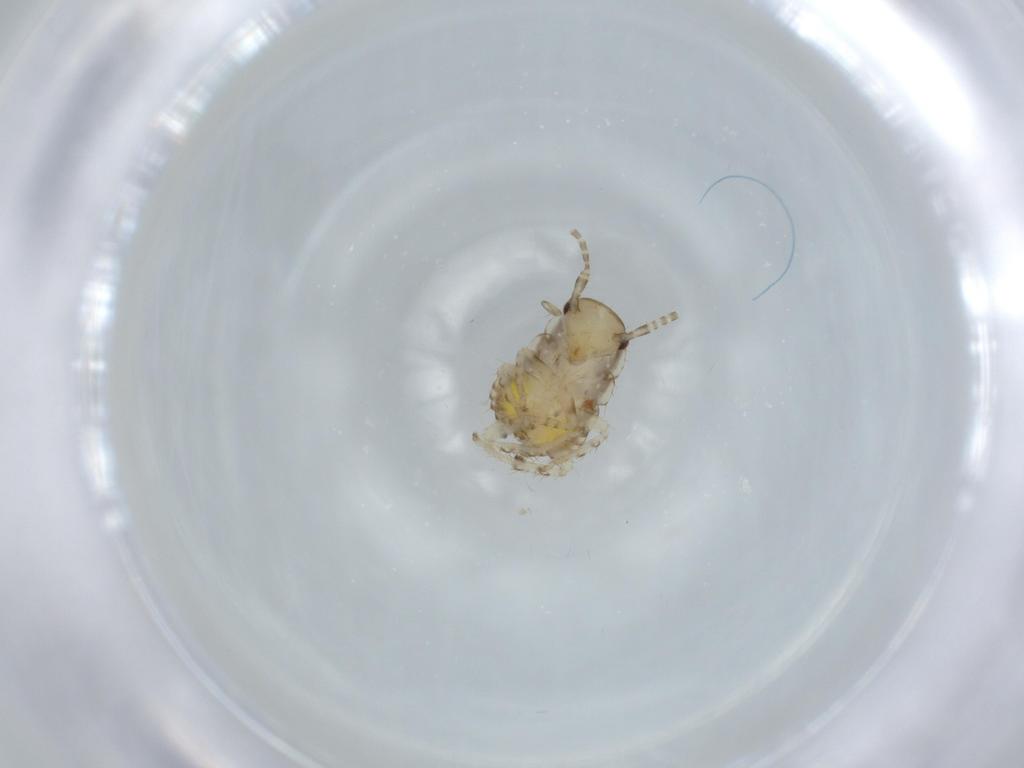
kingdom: Animalia
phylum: Arthropoda
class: Insecta
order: Blattodea
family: Ectobiidae
